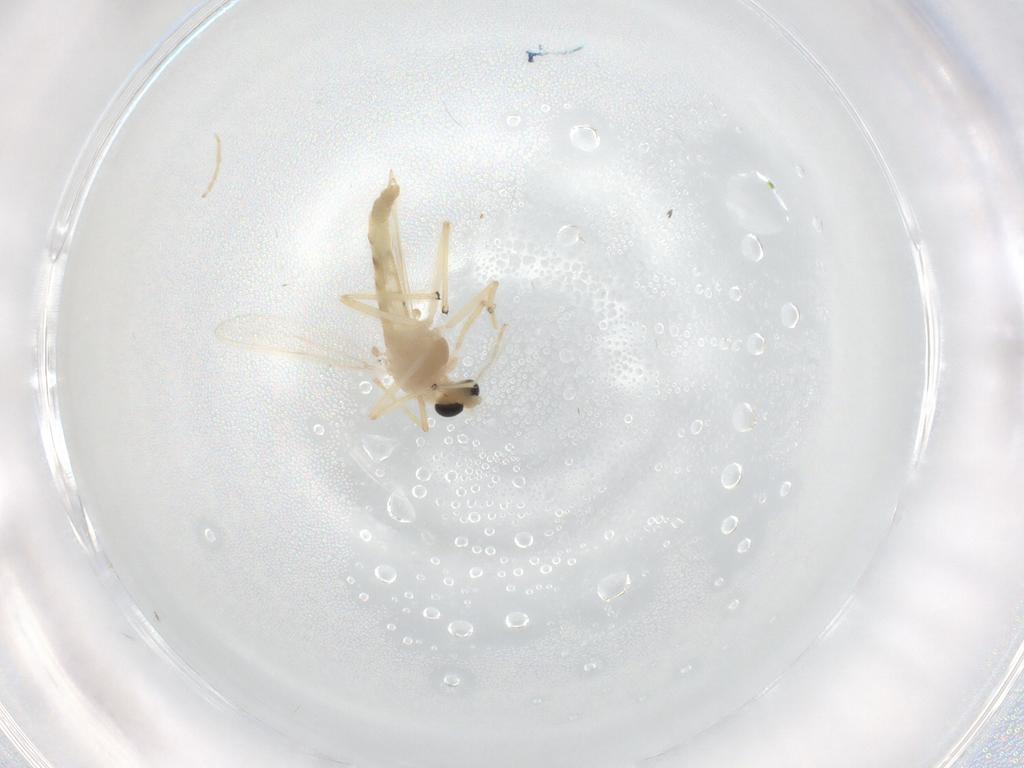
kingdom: Animalia
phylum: Arthropoda
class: Insecta
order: Diptera
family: Chironomidae
